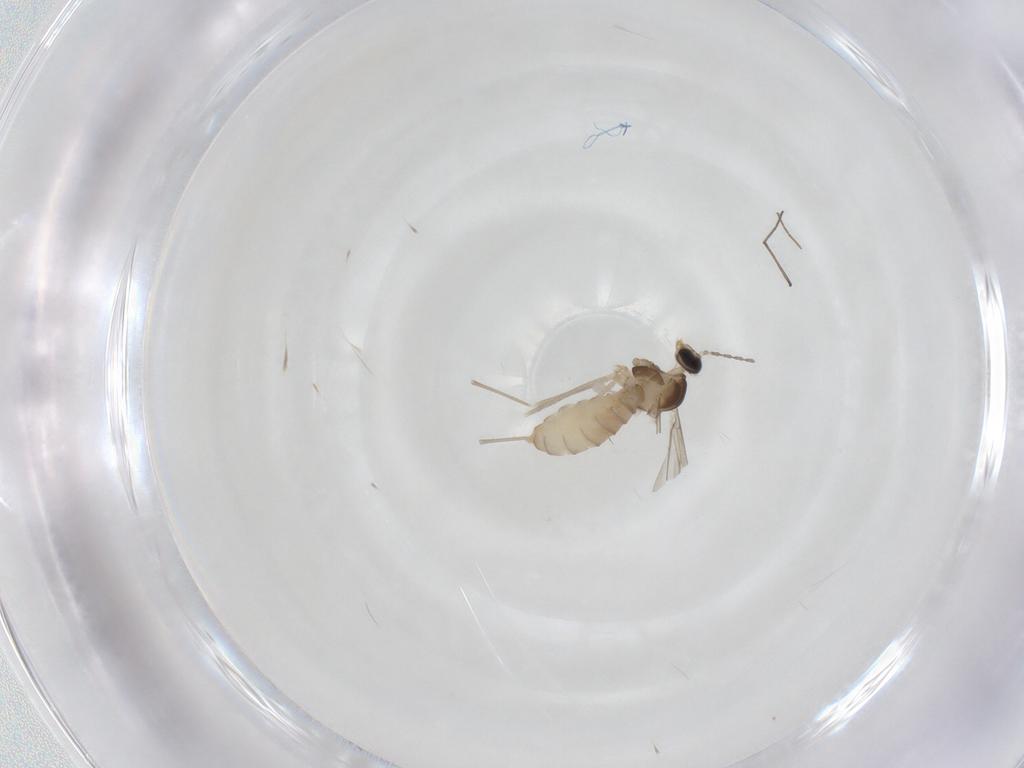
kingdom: Animalia
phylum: Arthropoda
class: Insecta
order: Diptera
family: Cecidomyiidae
